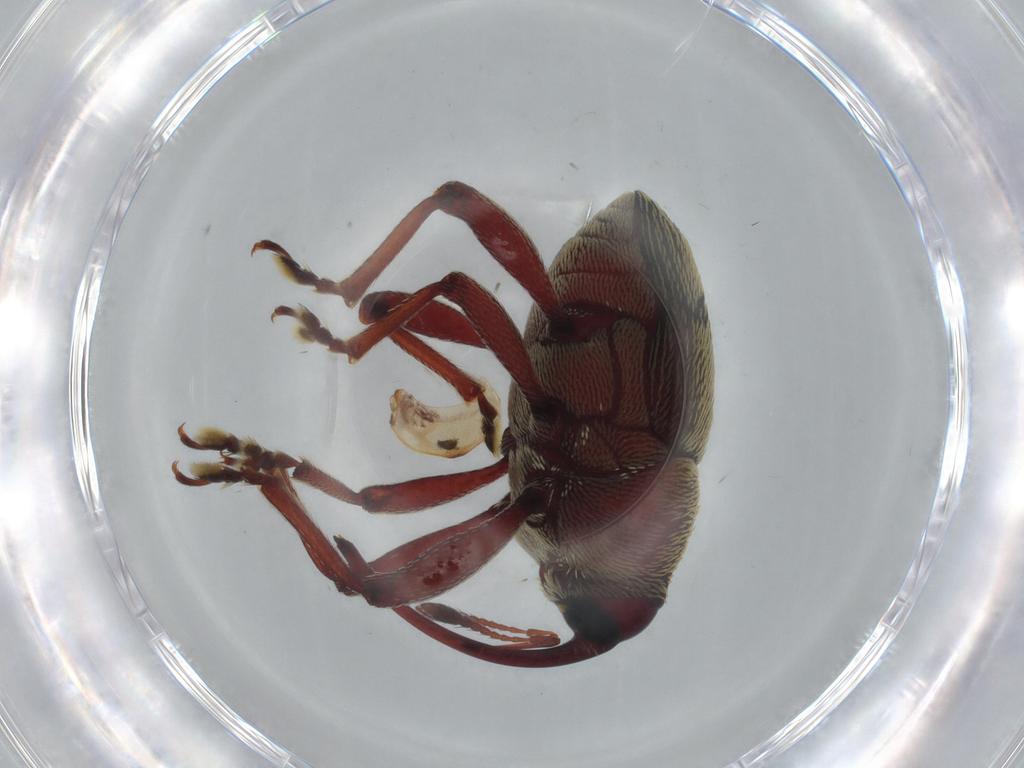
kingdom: Animalia
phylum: Arthropoda
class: Insecta
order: Coleoptera
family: Coccinellidae
